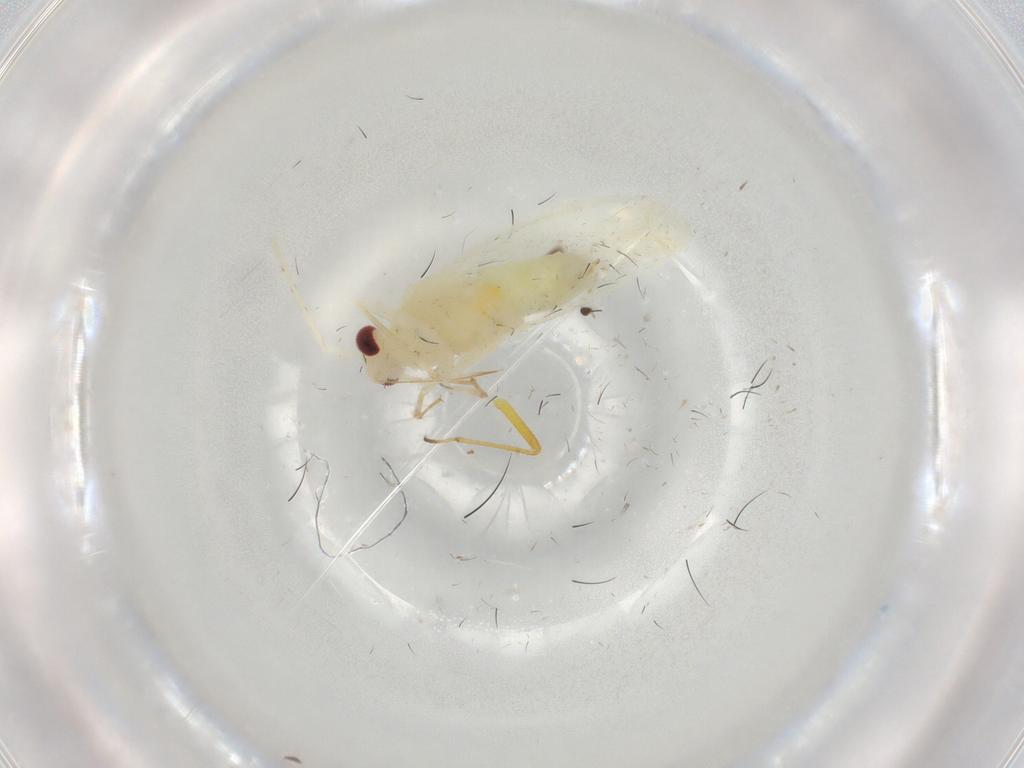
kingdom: Animalia
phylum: Arthropoda
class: Insecta
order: Hemiptera
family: Miridae
